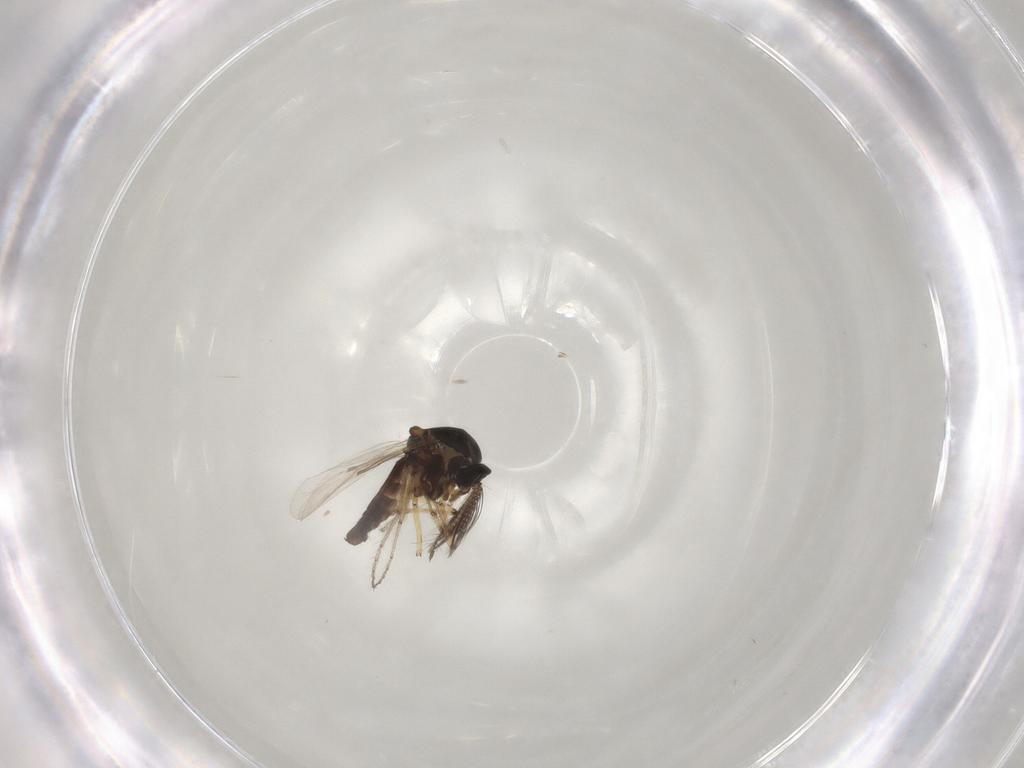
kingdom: Animalia
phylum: Arthropoda
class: Insecta
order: Diptera
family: Ceratopogonidae
